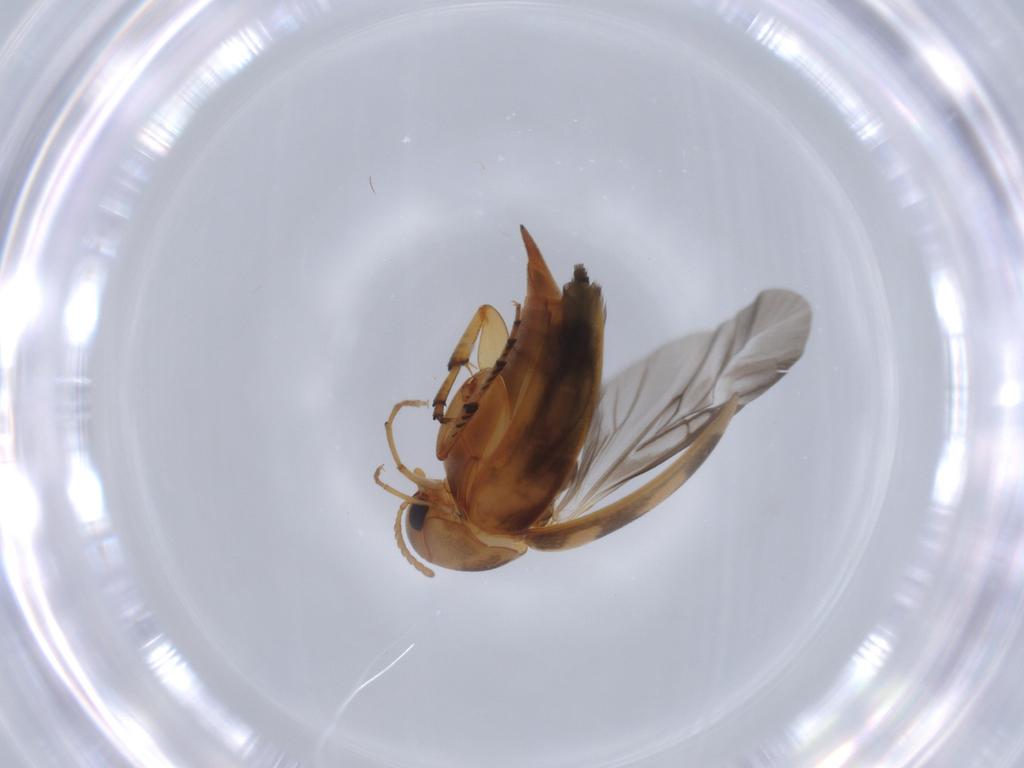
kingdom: Animalia
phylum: Arthropoda
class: Insecta
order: Coleoptera
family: Mordellidae
